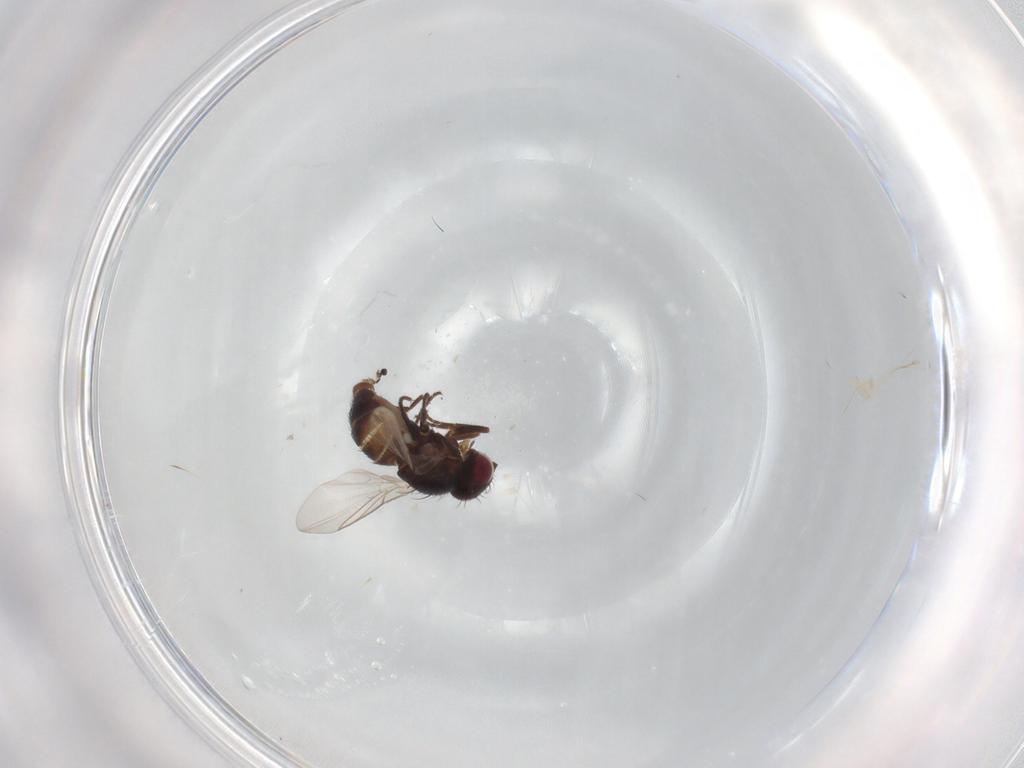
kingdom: Animalia
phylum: Arthropoda
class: Insecta
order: Diptera
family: Agromyzidae
